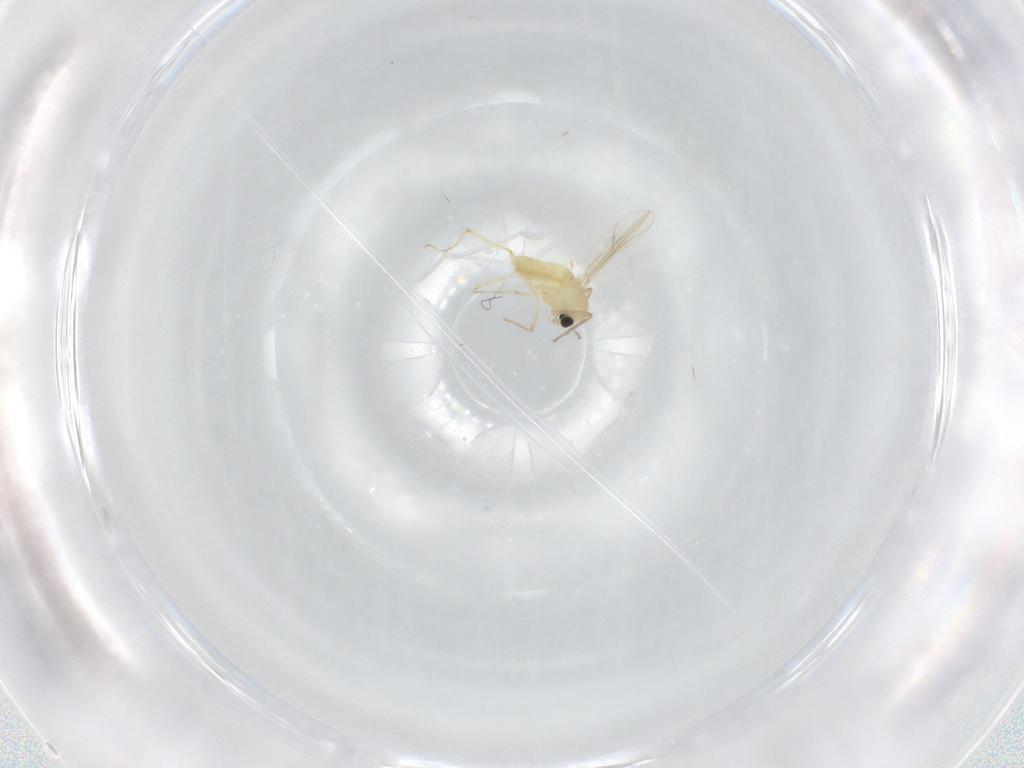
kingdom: Animalia
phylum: Arthropoda
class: Insecta
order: Diptera
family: Chironomidae
